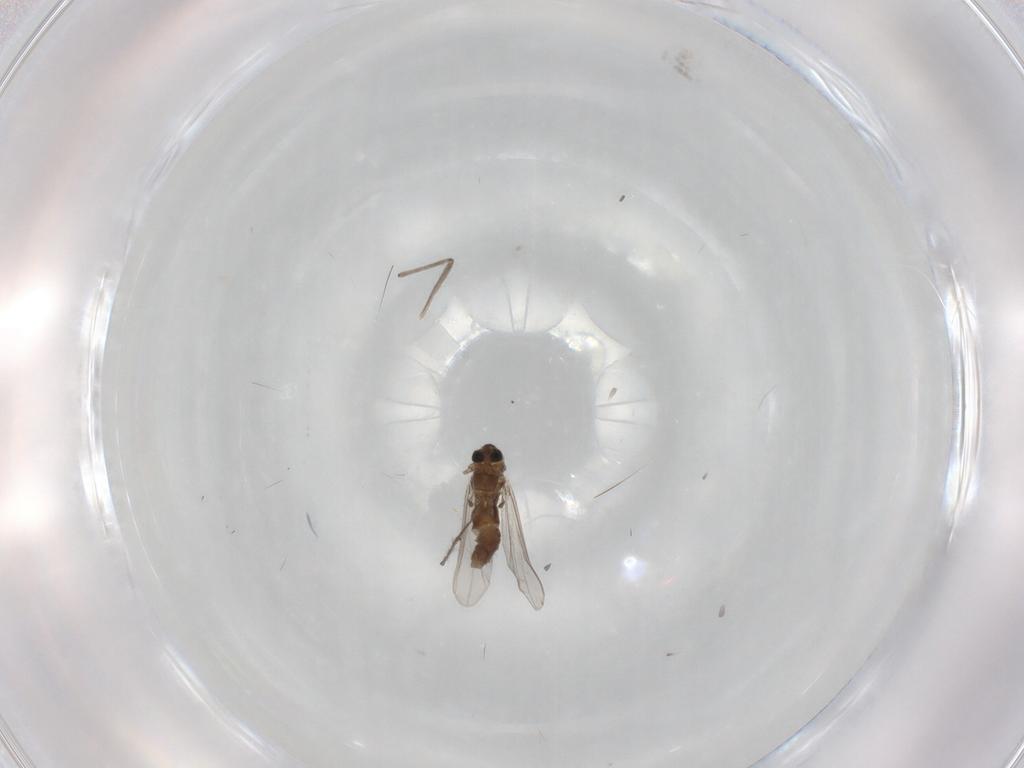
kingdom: Animalia
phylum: Arthropoda
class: Insecta
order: Diptera
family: Chironomidae
